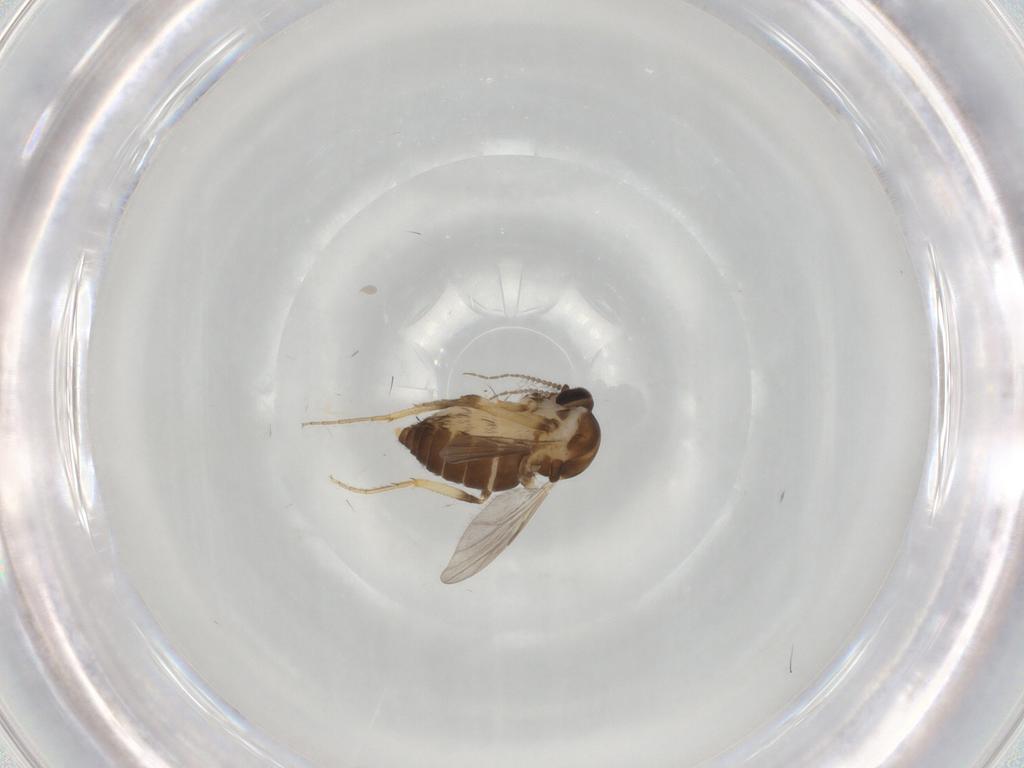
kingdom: Animalia
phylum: Arthropoda
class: Insecta
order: Diptera
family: Ceratopogonidae
